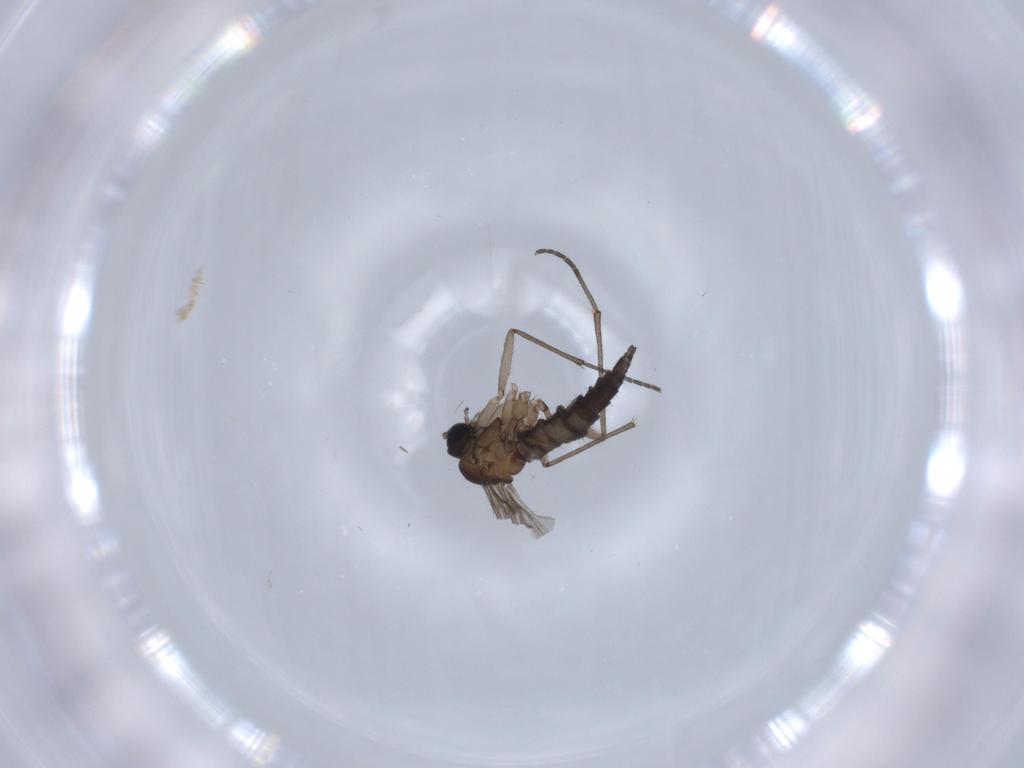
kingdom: Animalia
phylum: Arthropoda
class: Insecta
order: Diptera
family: Sciaridae
